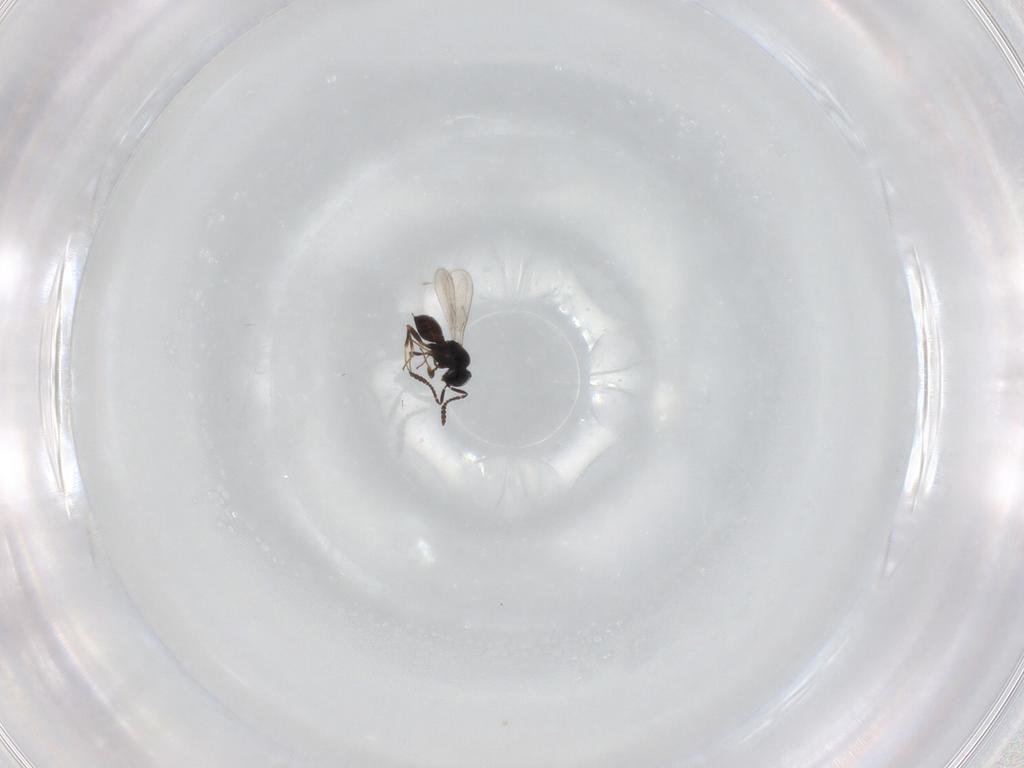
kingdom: Animalia
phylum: Arthropoda
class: Insecta
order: Hymenoptera
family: Scelionidae
